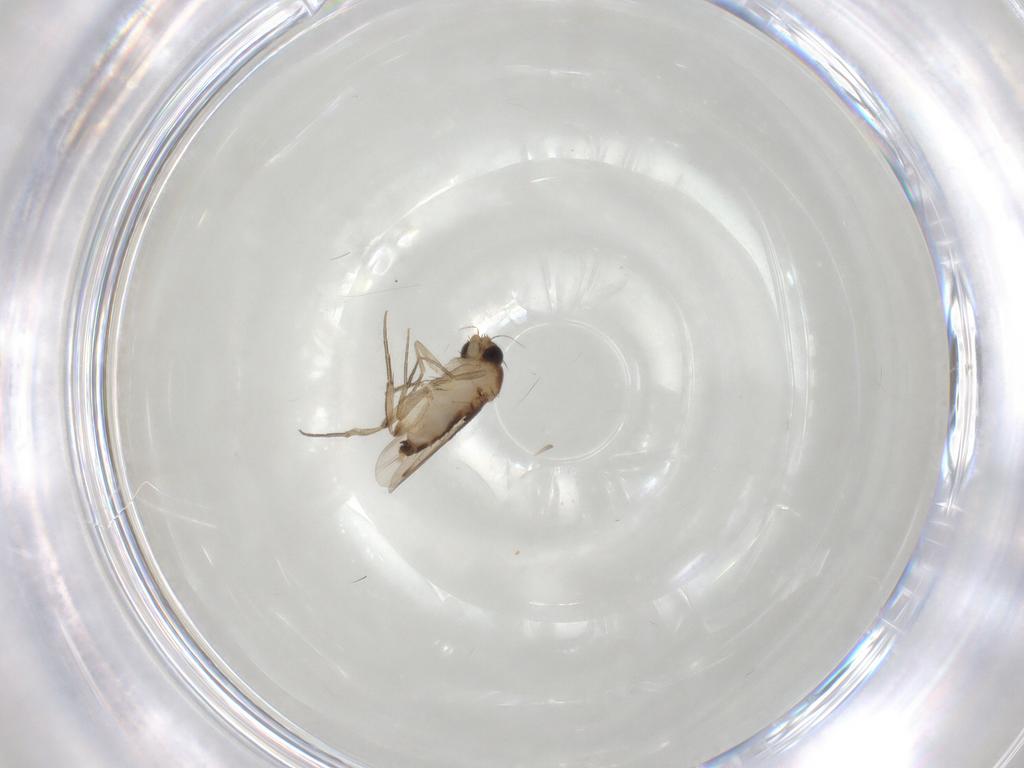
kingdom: Animalia
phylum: Arthropoda
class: Insecta
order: Diptera
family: Phoridae
